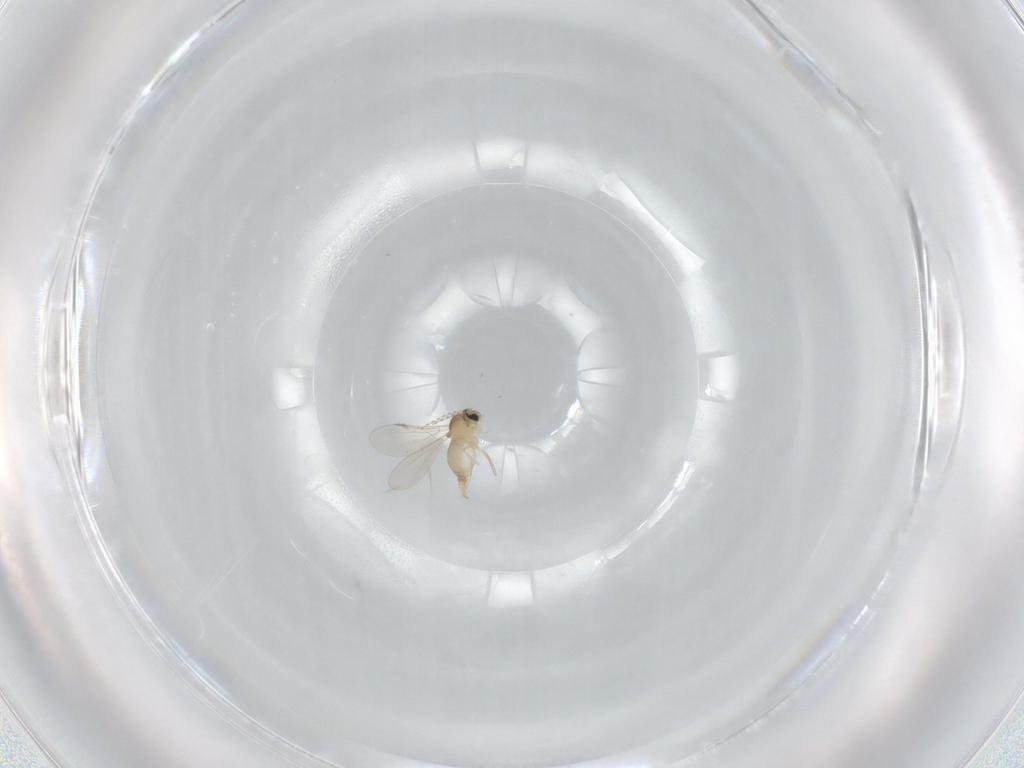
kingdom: Animalia
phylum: Arthropoda
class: Insecta
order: Diptera
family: Cecidomyiidae
